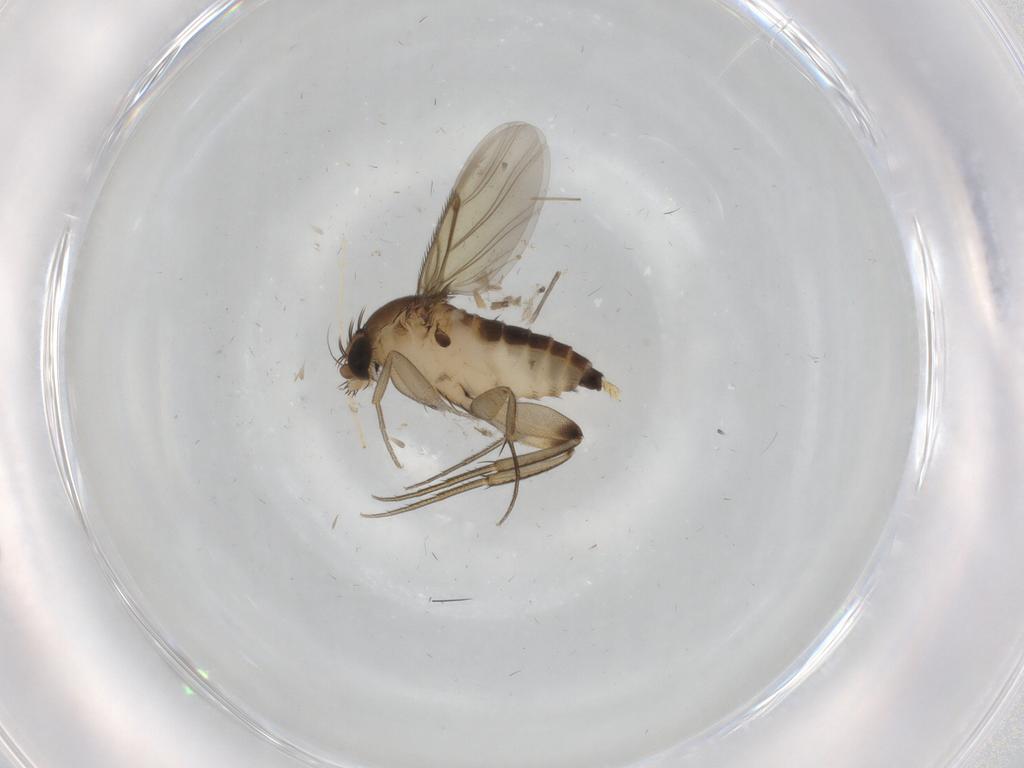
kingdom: Animalia
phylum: Arthropoda
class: Insecta
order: Diptera
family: Chironomidae
